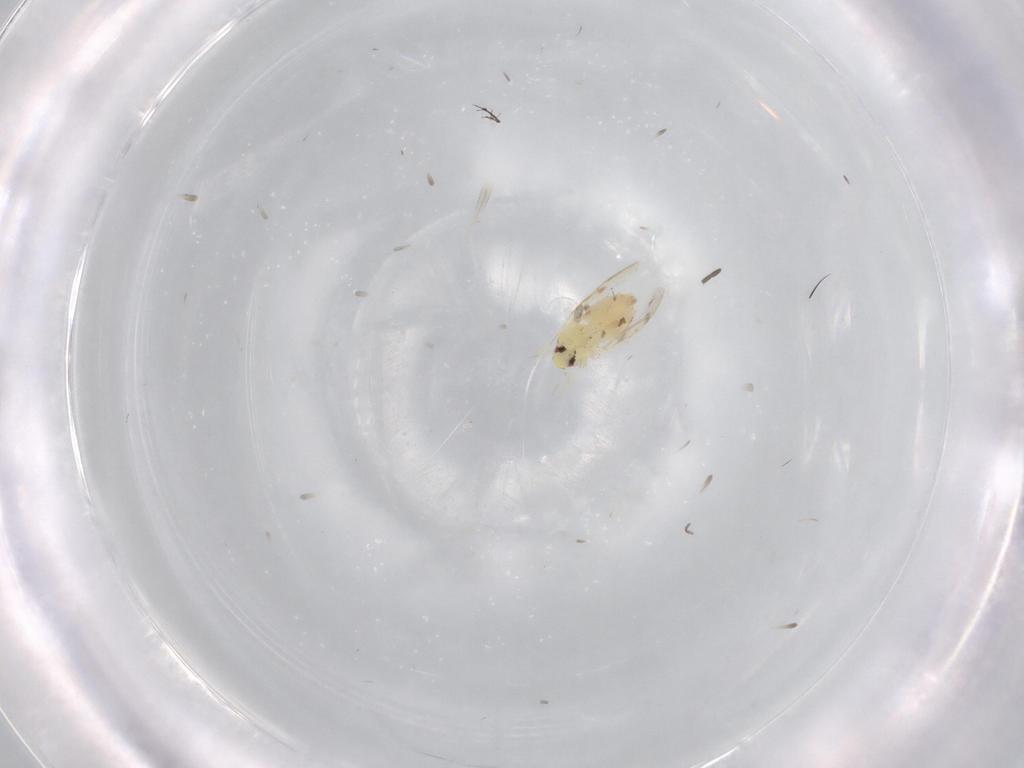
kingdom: Animalia
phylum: Arthropoda
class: Insecta
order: Hemiptera
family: Aleyrodidae
